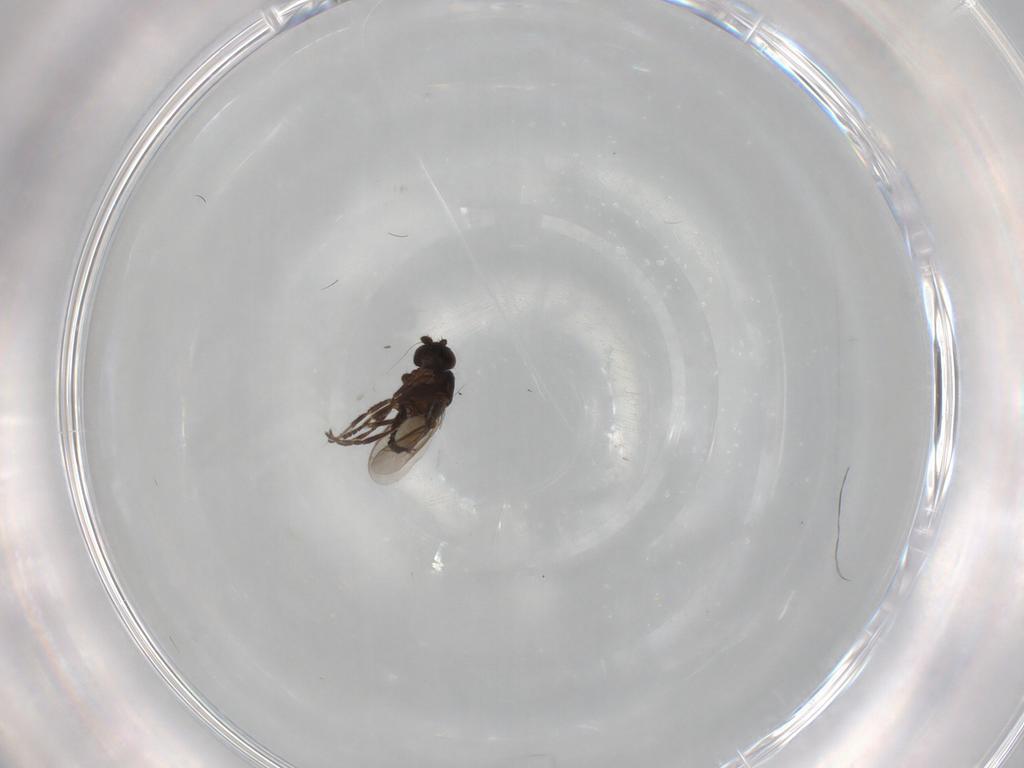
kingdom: Animalia
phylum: Arthropoda
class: Insecta
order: Diptera
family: Sphaeroceridae
